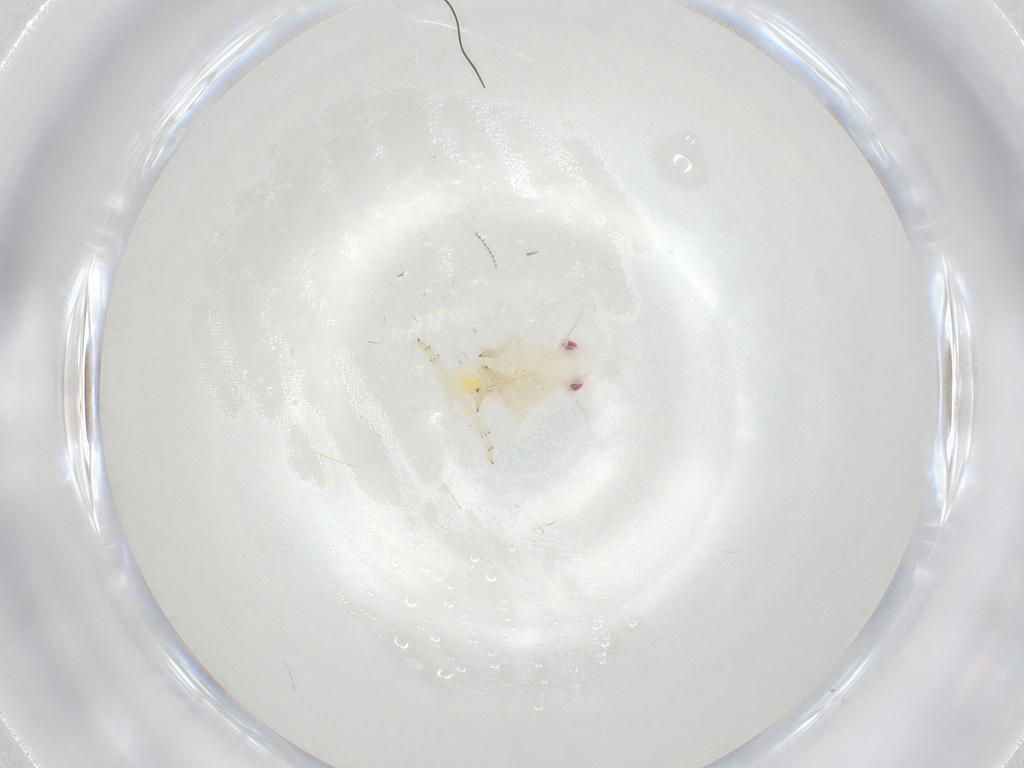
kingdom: Animalia
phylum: Arthropoda
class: Insecta
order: Hemiptera
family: Tropiduchidae
